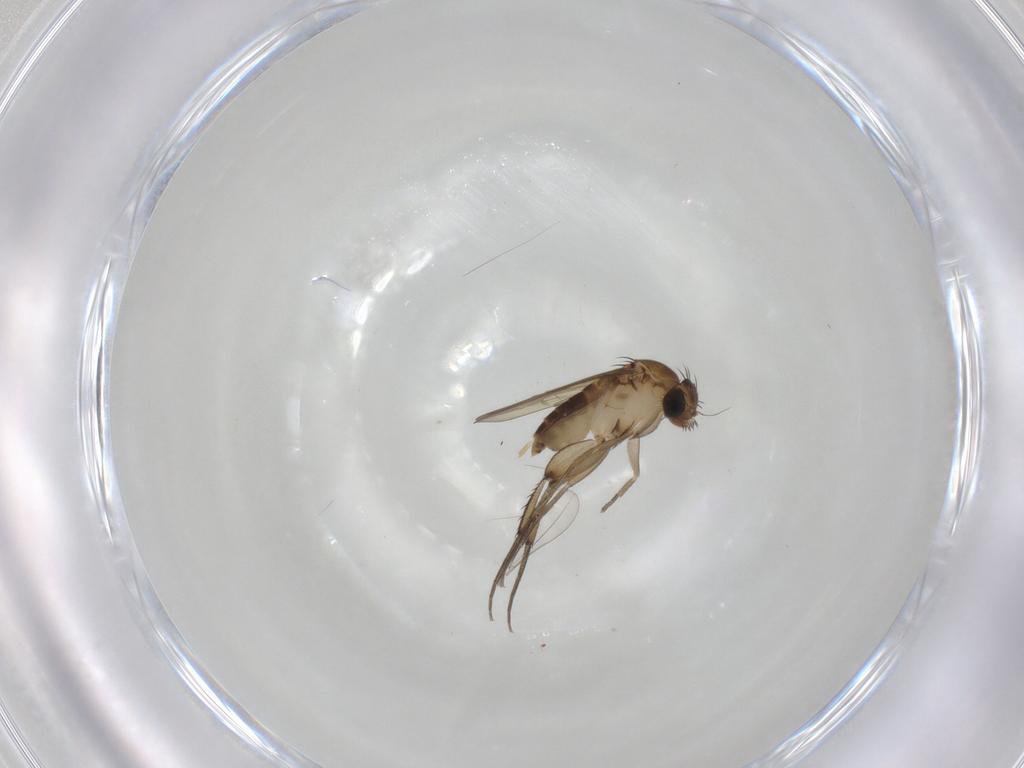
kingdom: Animalia
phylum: Arthropoda
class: Insecta
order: Diptera
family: Phoridae
